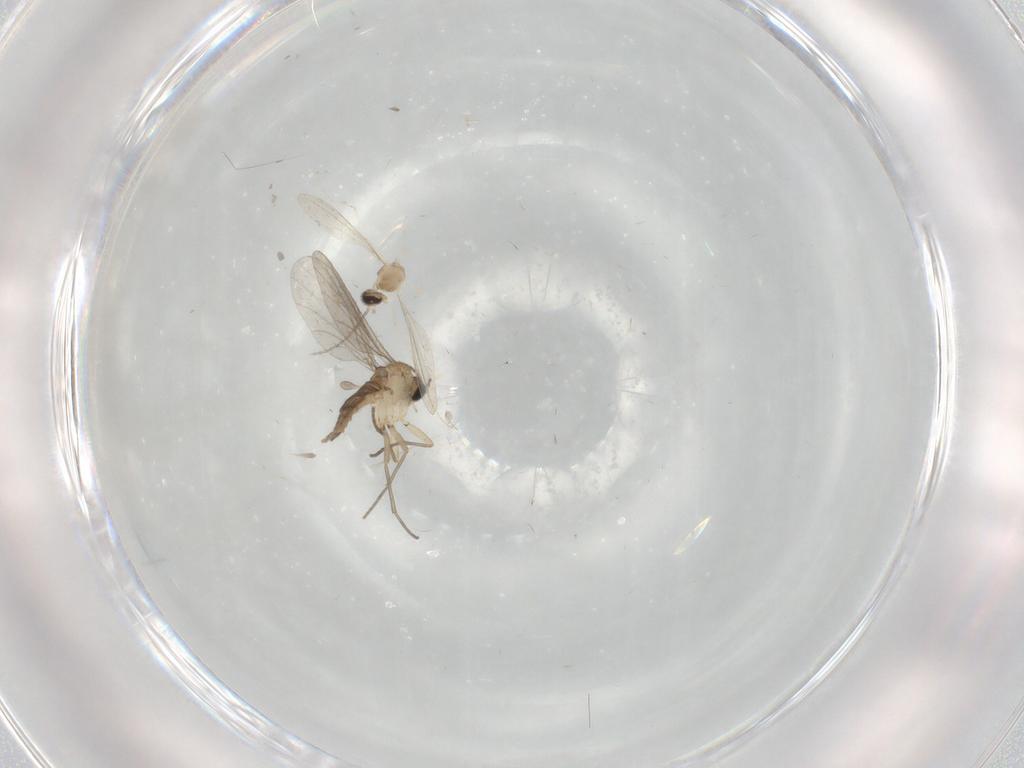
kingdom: Animalia
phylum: Arthropoda
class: Insecta
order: Diptera
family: Sciaridae
